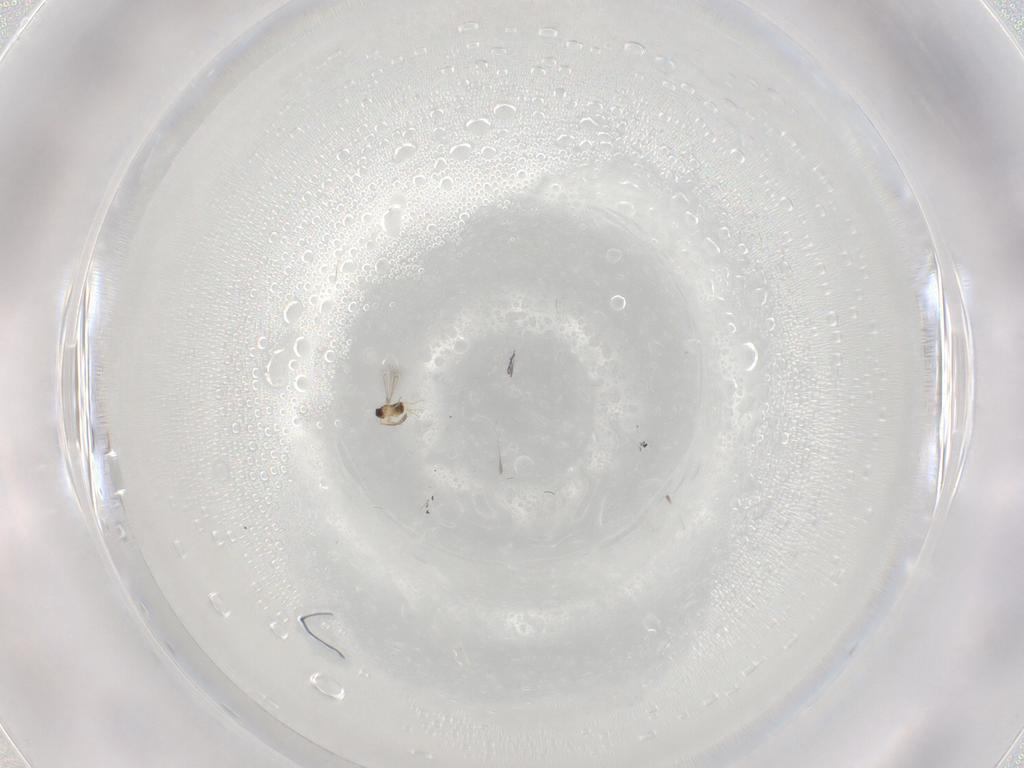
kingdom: Animalia
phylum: Arthropoda
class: Insecta
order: Hymenoptera
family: Mymaridae
